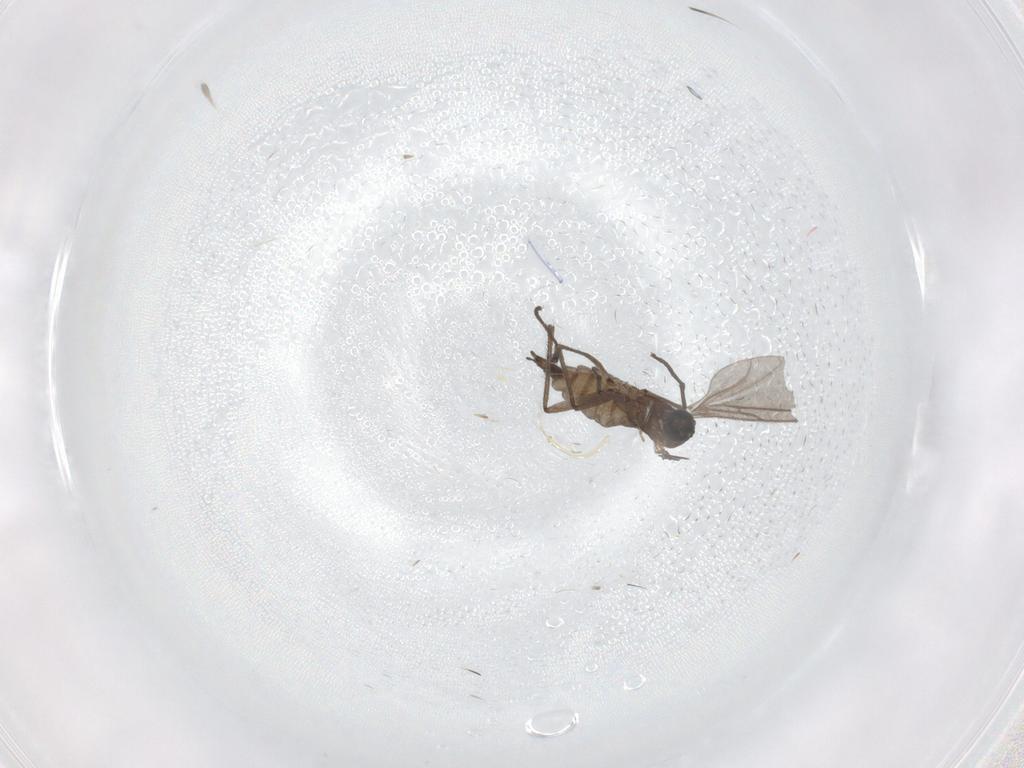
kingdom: Animalia
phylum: Arthropoda
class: Insecta
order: Diptera
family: Sciaridae
